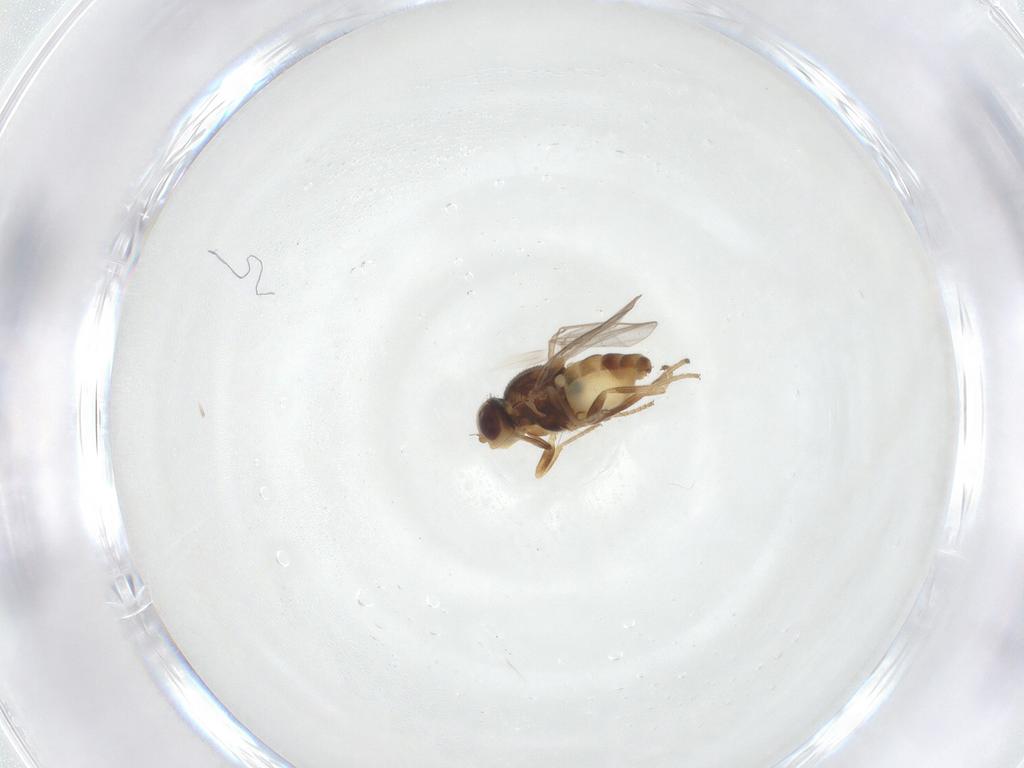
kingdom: Animalia
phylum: Arthropoda
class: Insecta
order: Diptera
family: Chloropidae
